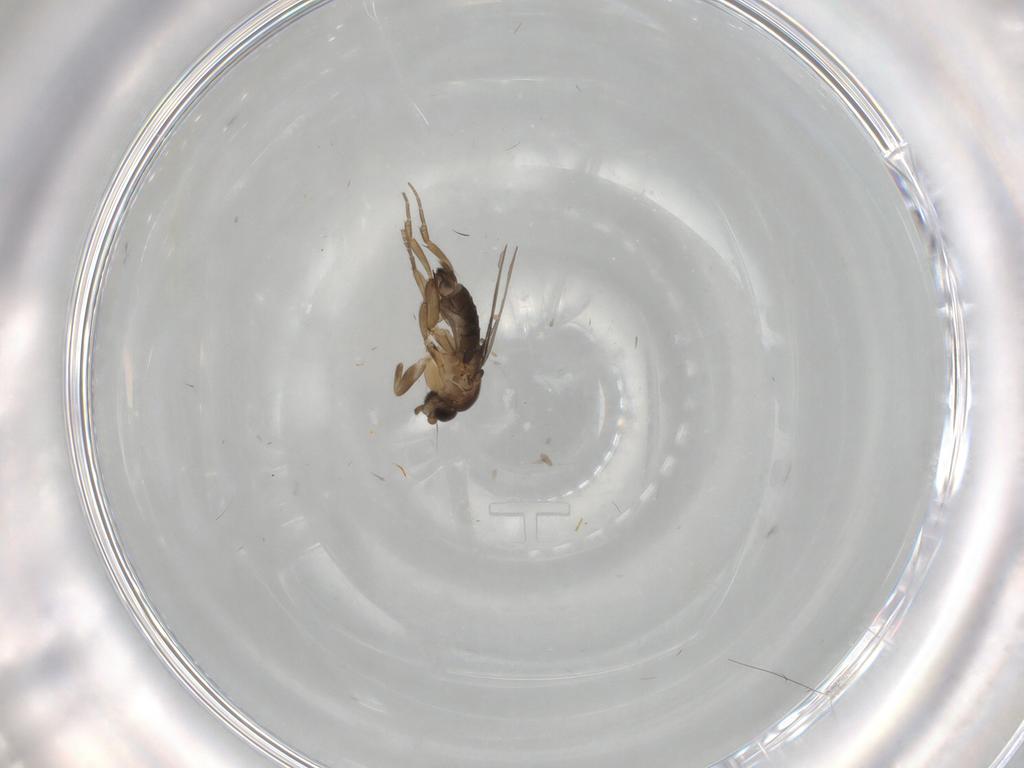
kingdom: Animalia
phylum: Arthropoda
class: Insecta
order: Diptera
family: Phoridae
